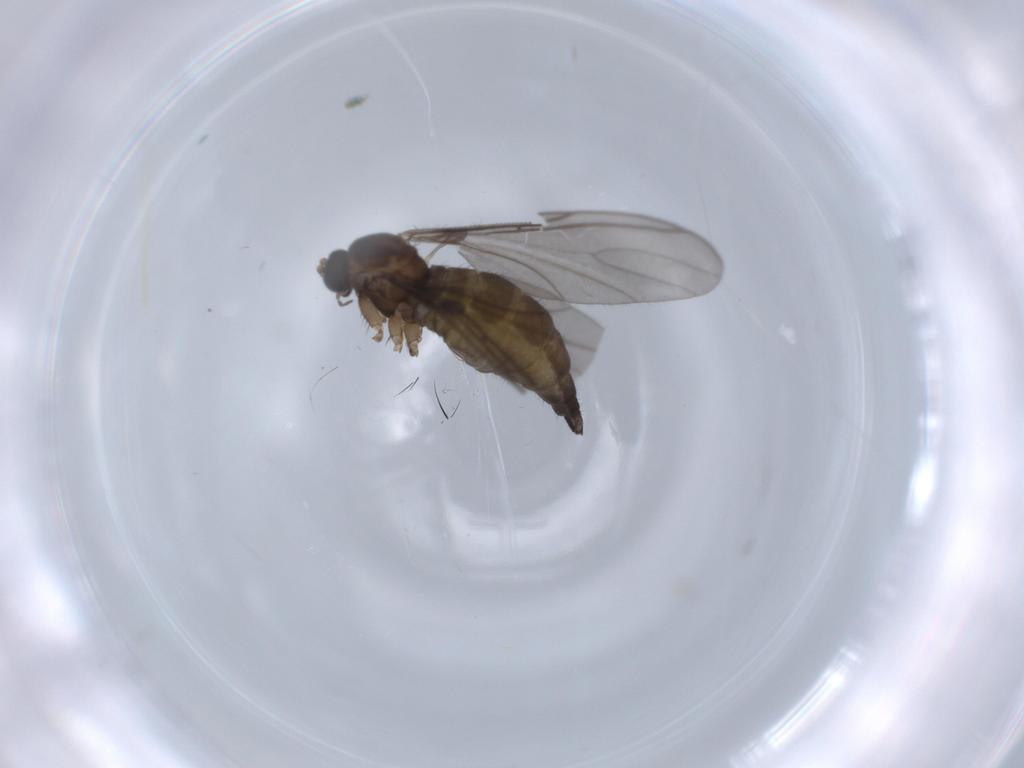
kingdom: Animalia
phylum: Arthropoda
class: Insecta
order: Diptera
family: Sciaridae
